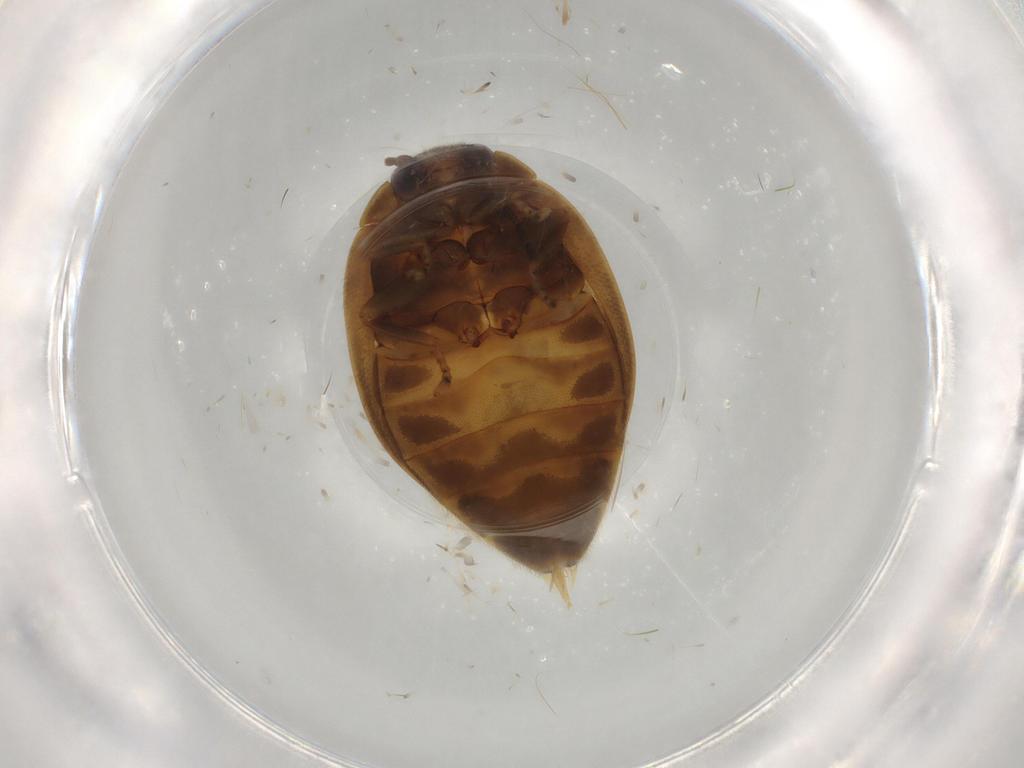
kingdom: Animalia
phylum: Arthropoda
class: Insecta
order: Coleoptera
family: Scirtidae
